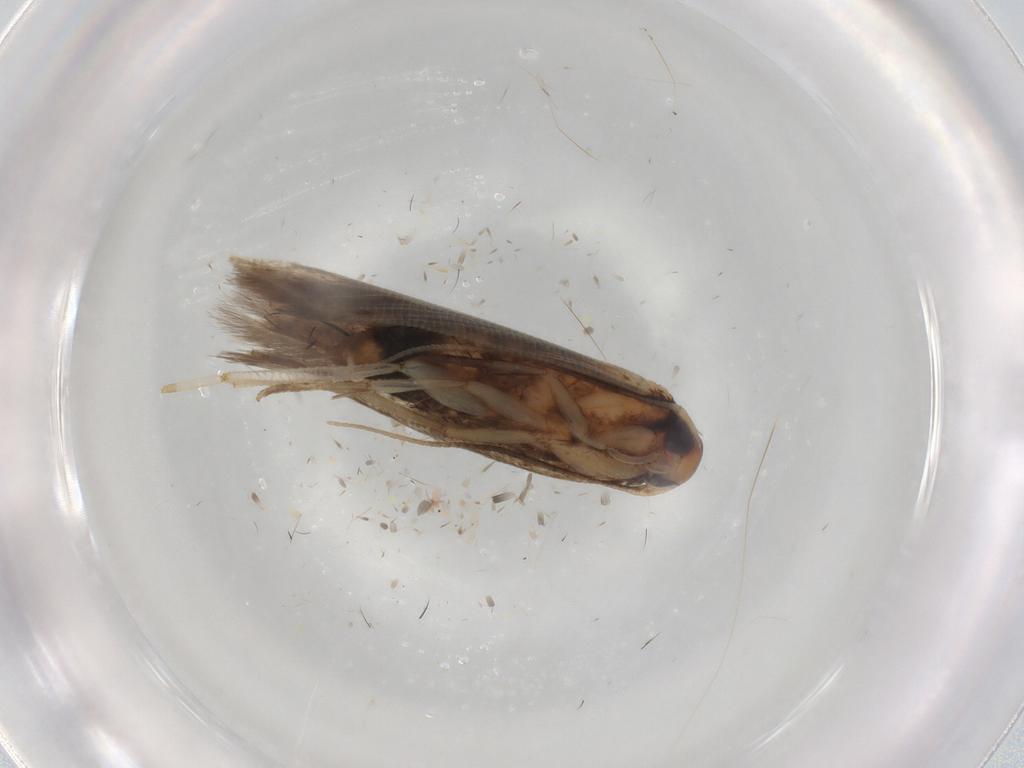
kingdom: Animalia
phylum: Arthropoda
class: Insecta
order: Lepidoptera
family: Cosmopterigidae
